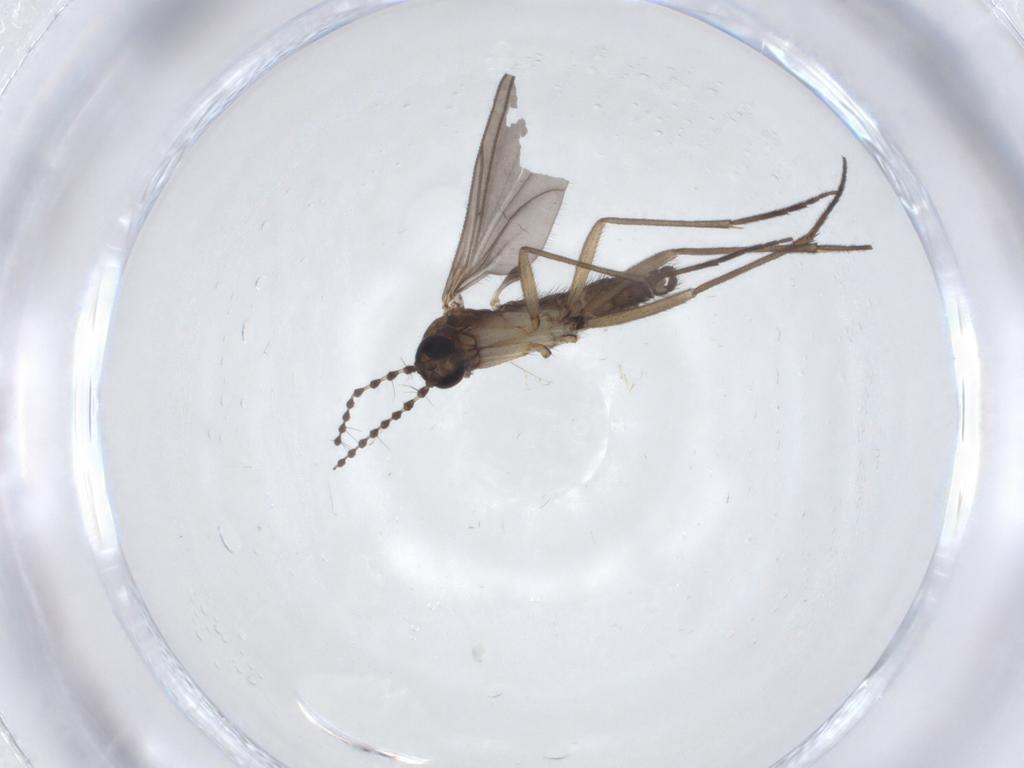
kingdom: Animalia
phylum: Arthropoda
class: Insecta
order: Diptera
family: Sciaridae
